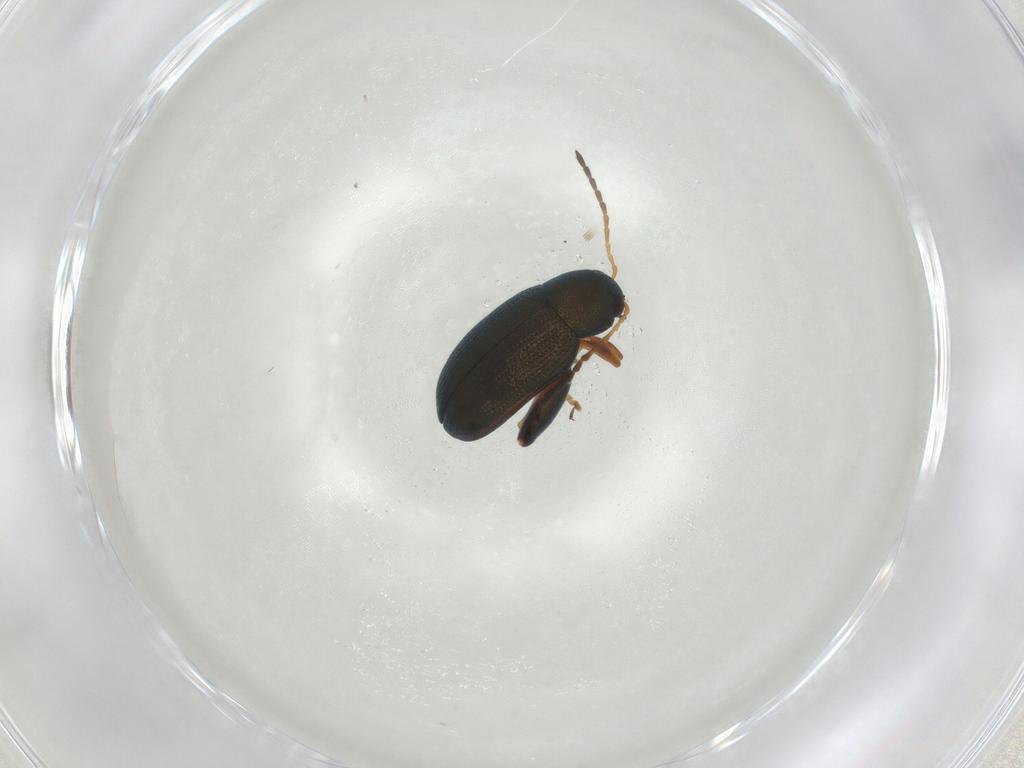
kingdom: Animalia
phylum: Arthropoda
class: Insecta
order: Coleoptera
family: Chrysomelidae
